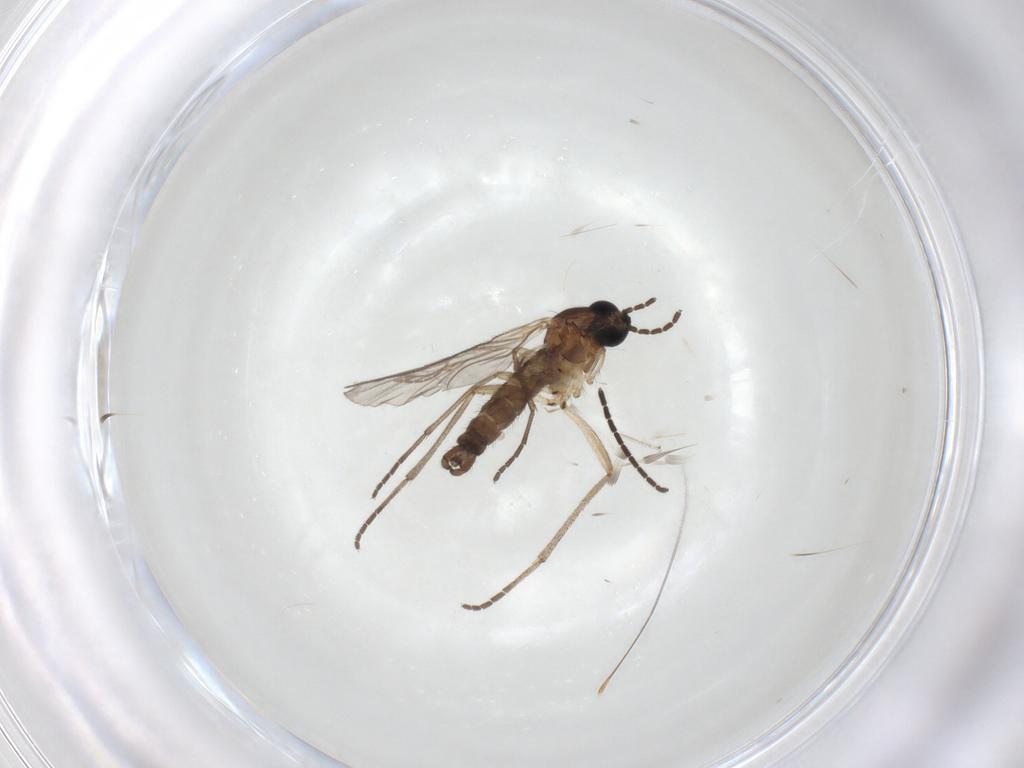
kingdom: Animalia
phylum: Arthropoda
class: Insecta
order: Diptera
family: Sciaridae
